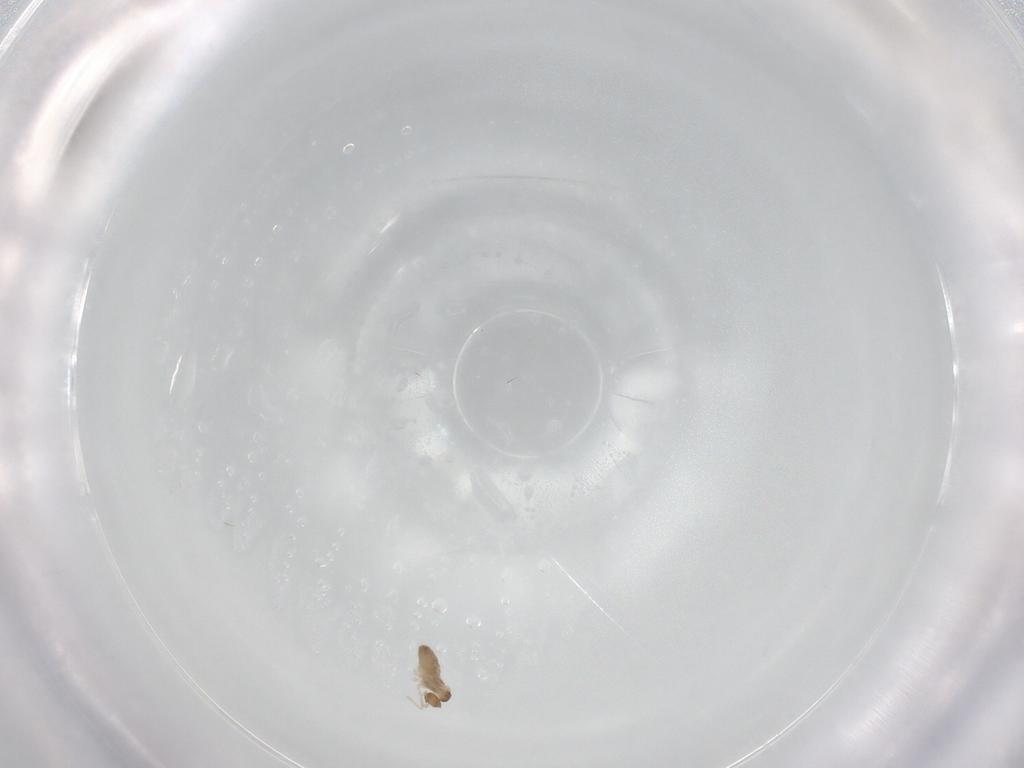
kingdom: Animalia
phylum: Arthropoda
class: Insecta
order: Diptera
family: Cecidomyiidae
